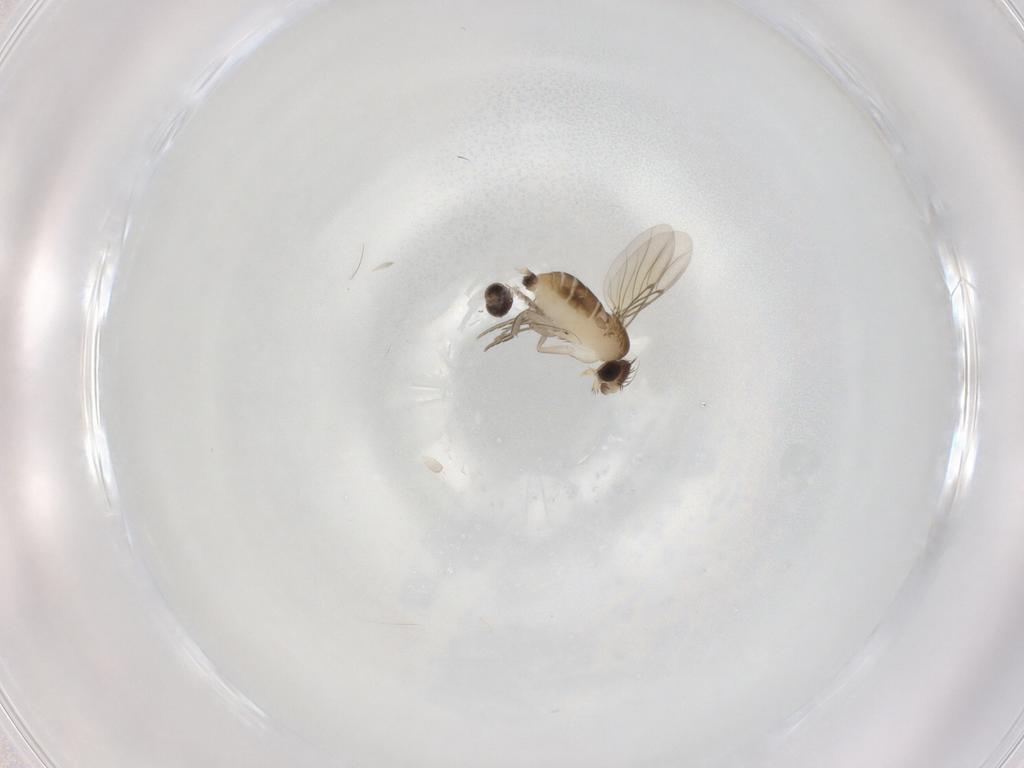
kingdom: Animalia
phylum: Arthropoda
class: Insecta
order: Diptera
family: Phoridae
